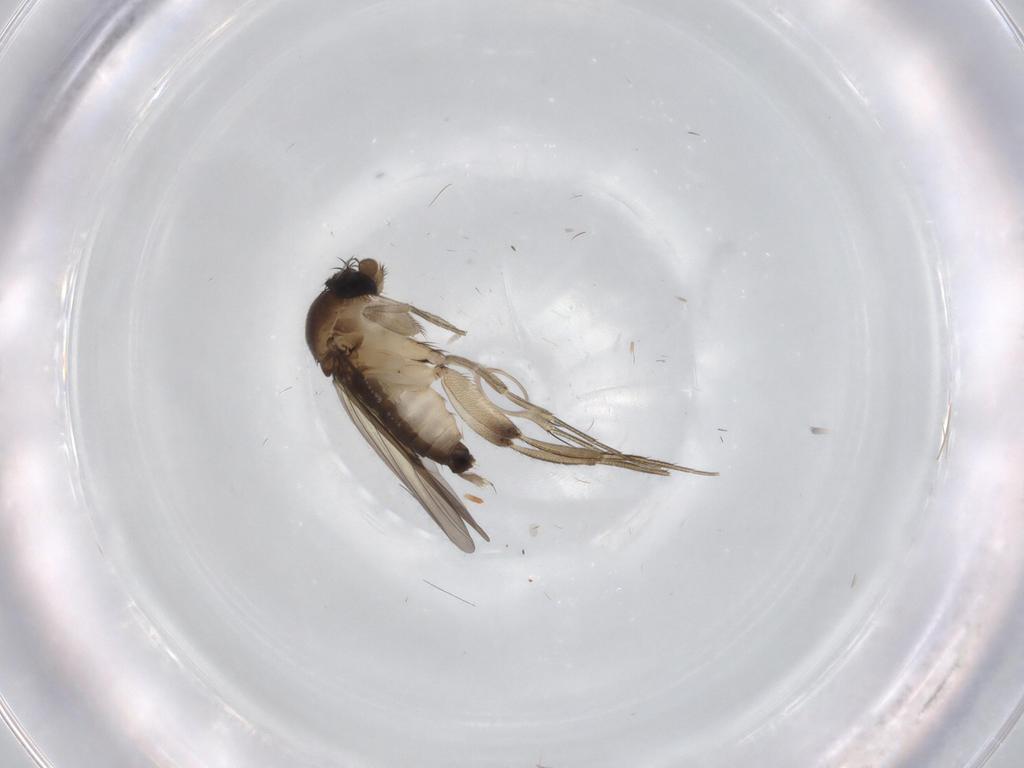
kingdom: Animalia
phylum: Arthropoda
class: Insecta
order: Diptera
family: Phoridae
